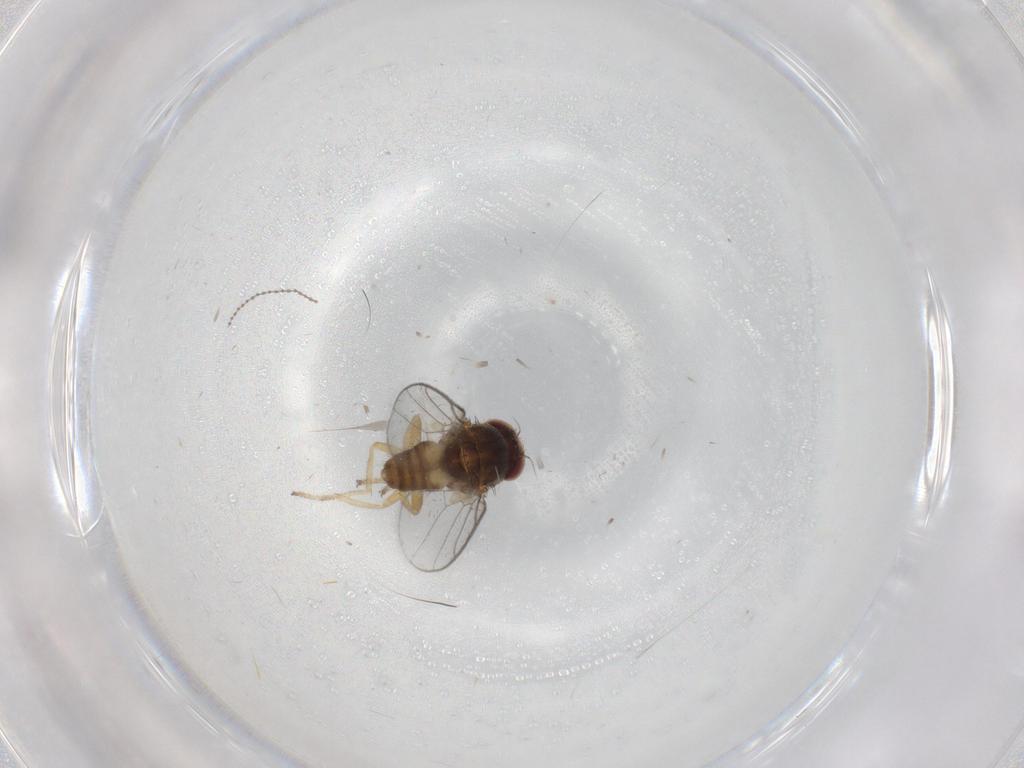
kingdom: Animalia
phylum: Arthropoda
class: Insecta
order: Diptera
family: Chloropidae
